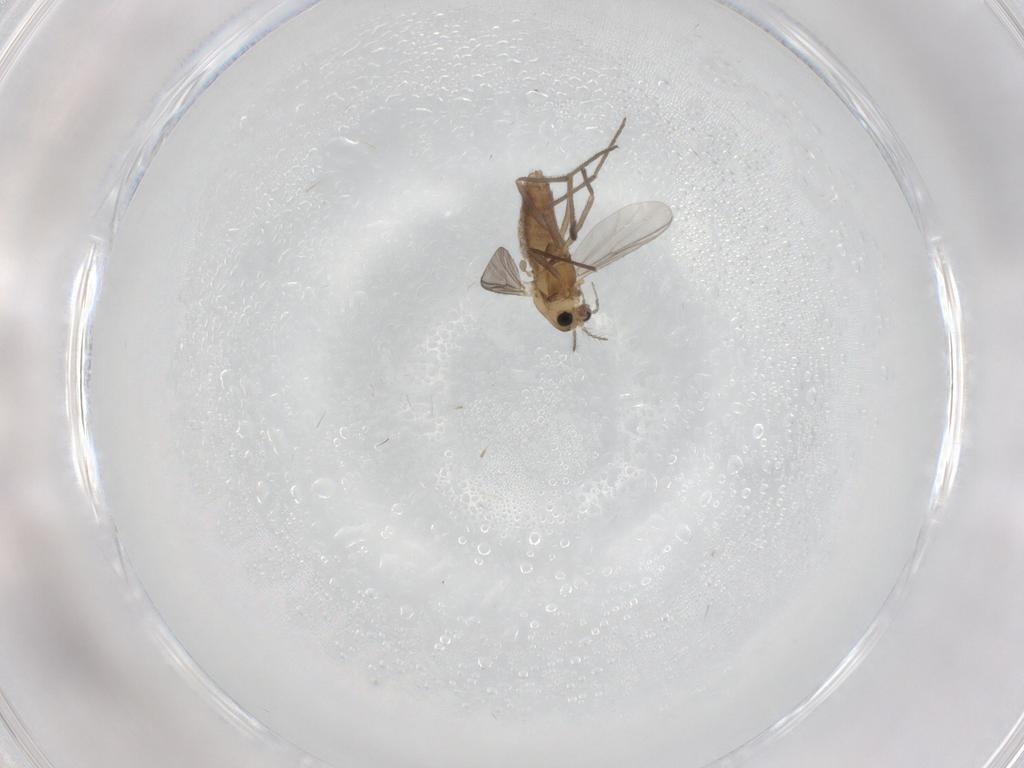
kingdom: Animalia
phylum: Arthropoda
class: Insecta
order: Diptera
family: Chironomidae
